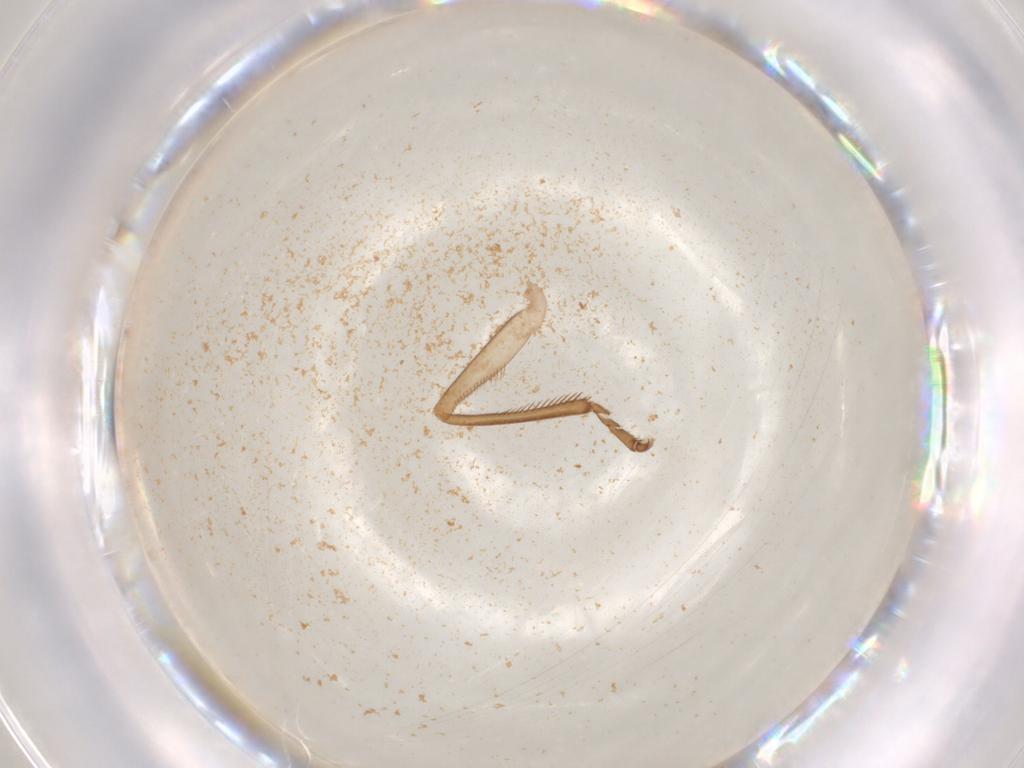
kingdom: Animalia
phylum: Arthropoda
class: Insecta
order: Hemiptera
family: Cicadellidae
